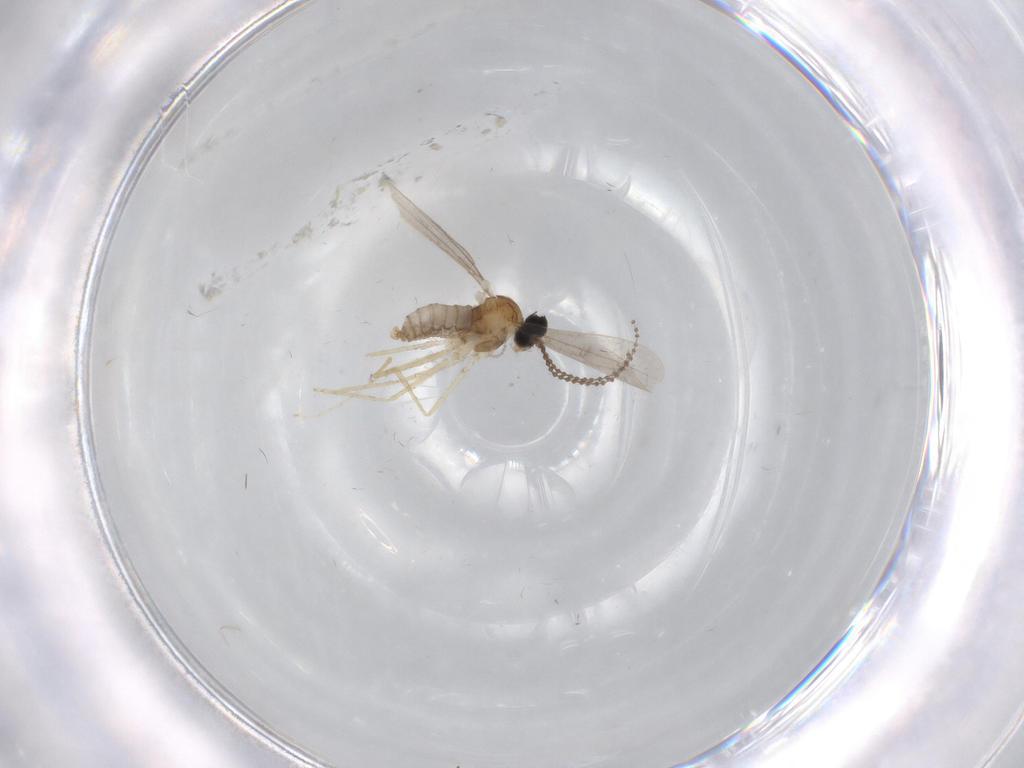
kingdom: Animalia
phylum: Arthropoda
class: Insecta
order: Diptera
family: Cecidomyiidae
